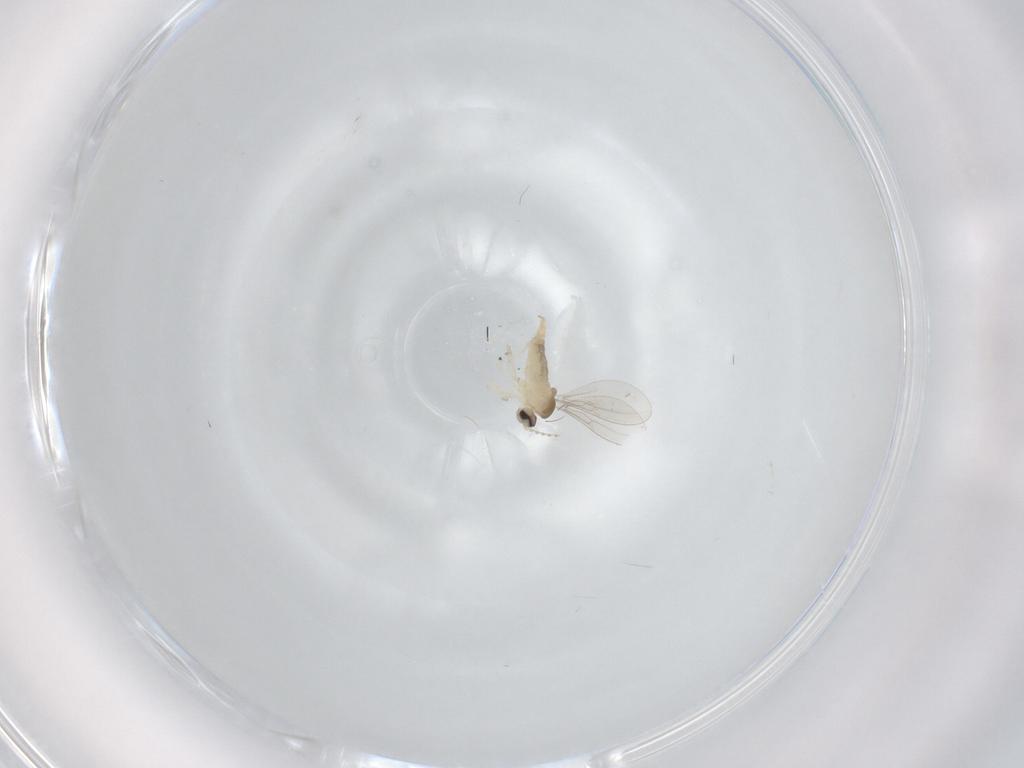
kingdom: Animalia
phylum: Arthropoda
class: Insecta
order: Diptera
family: Cecidomyiidae
